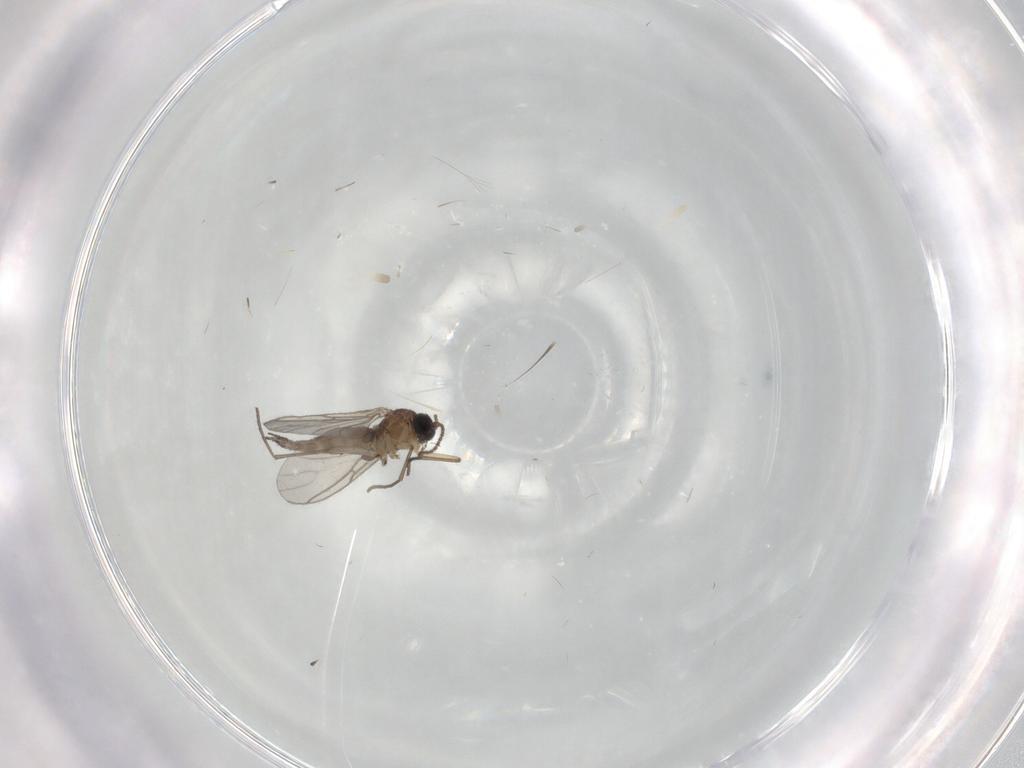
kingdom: Animalia
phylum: Arthropoda
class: Insecta
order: Diptera
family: Sciaridae
